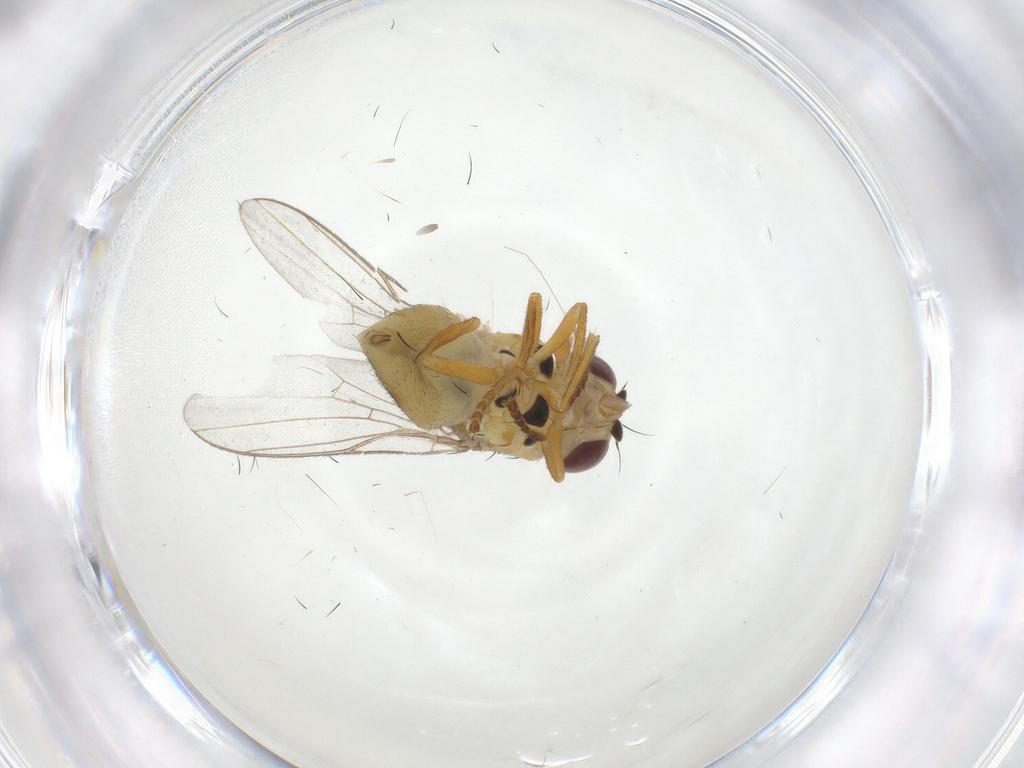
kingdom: Animalia
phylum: Arthropoda
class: Insecta
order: Diptera
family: Chloropidae
